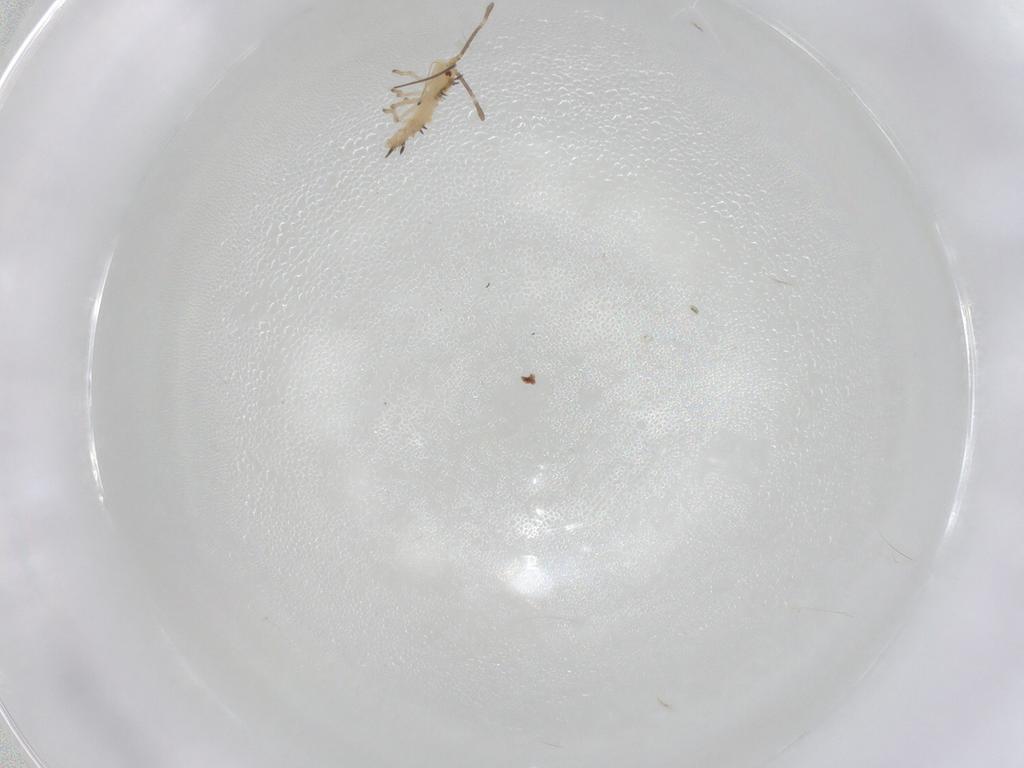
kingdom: Animalia
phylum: Arthropoda
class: Insecta
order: Hemiptera
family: Tingidae
